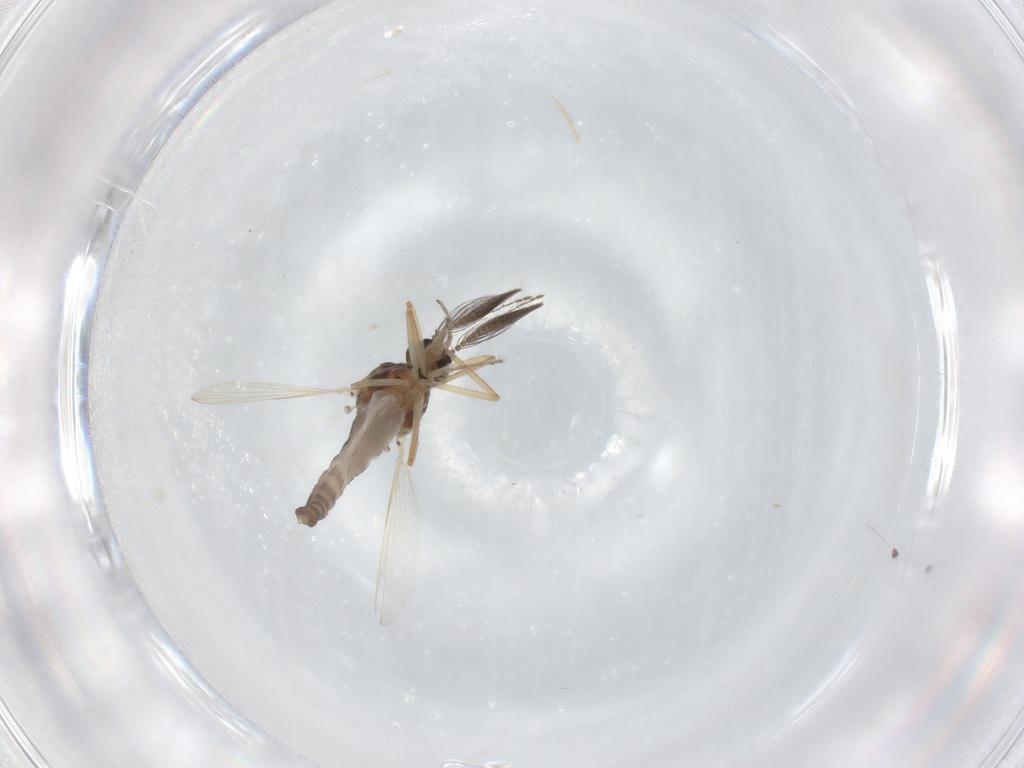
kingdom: Animalia
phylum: Arthropoda
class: Insecta
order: Diptera
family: Ceratopogonidae
